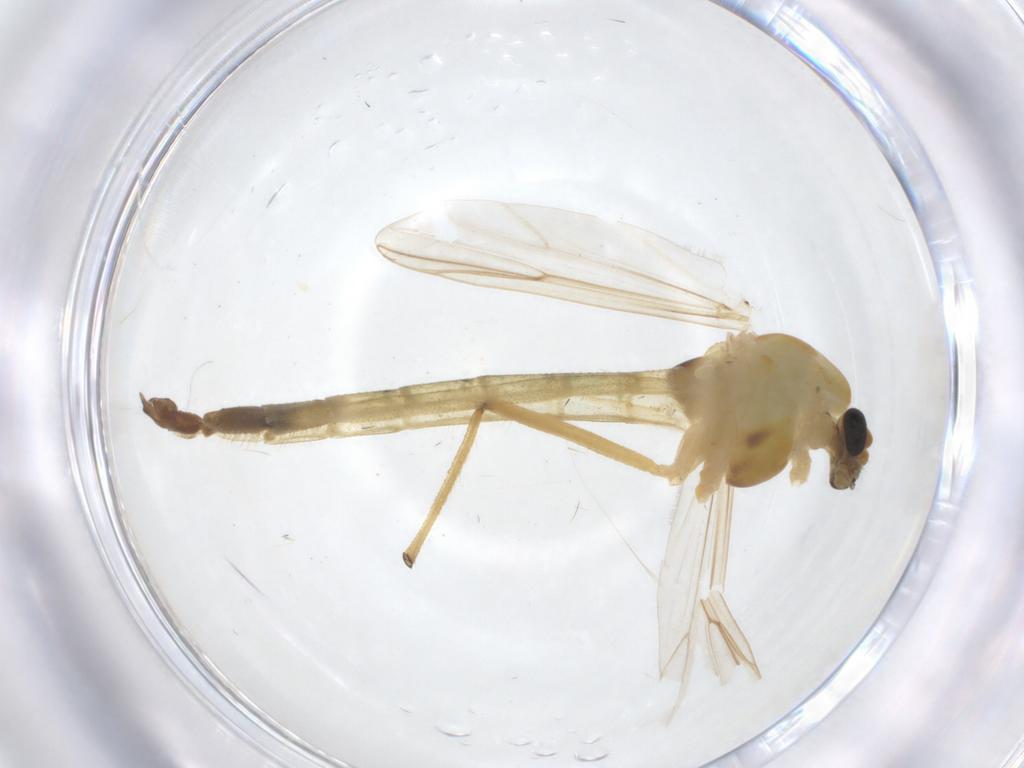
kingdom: Animalia
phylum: Arthropoda
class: Insecta
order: Diptera
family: Chironomidae
